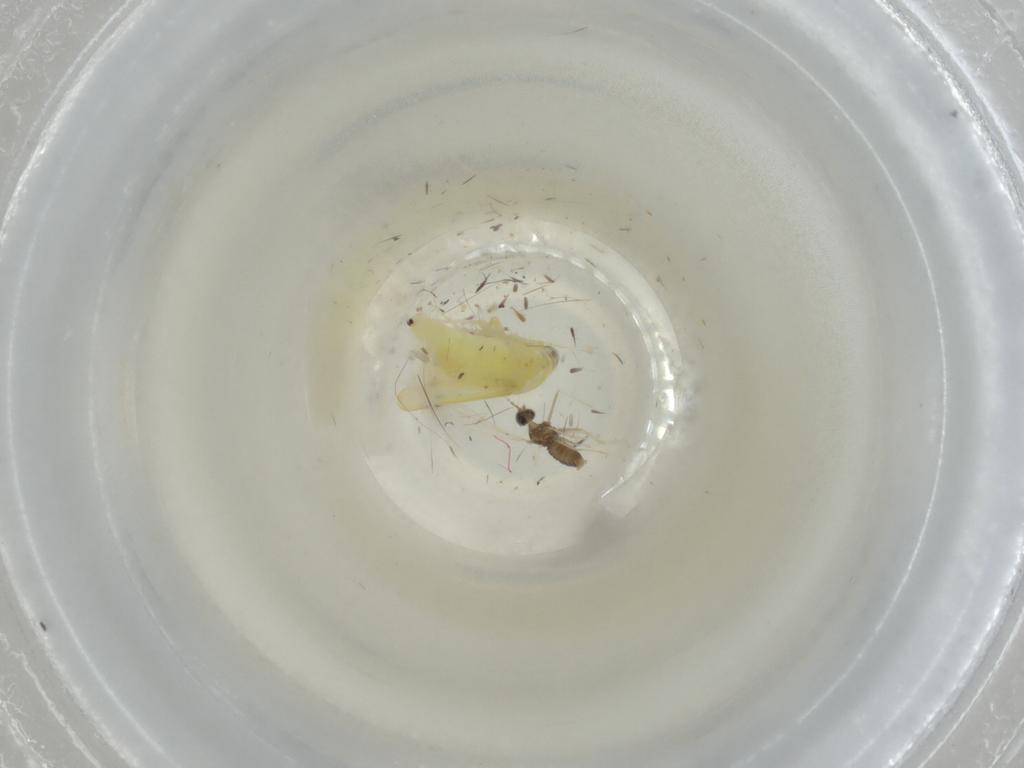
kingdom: Animalia
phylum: Arthropoda
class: Insecta
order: Diptera
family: Cecidomyiidae
